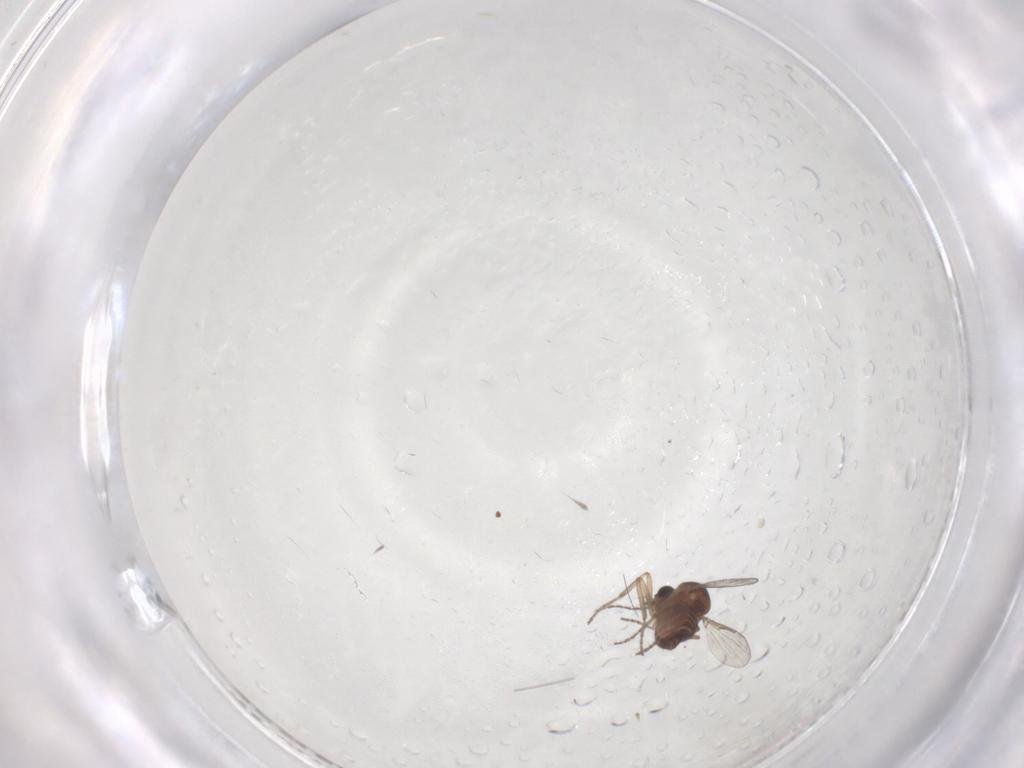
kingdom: Animalia
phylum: Arthropoda
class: Insecta
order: Diptera
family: Ceratopogonidae
